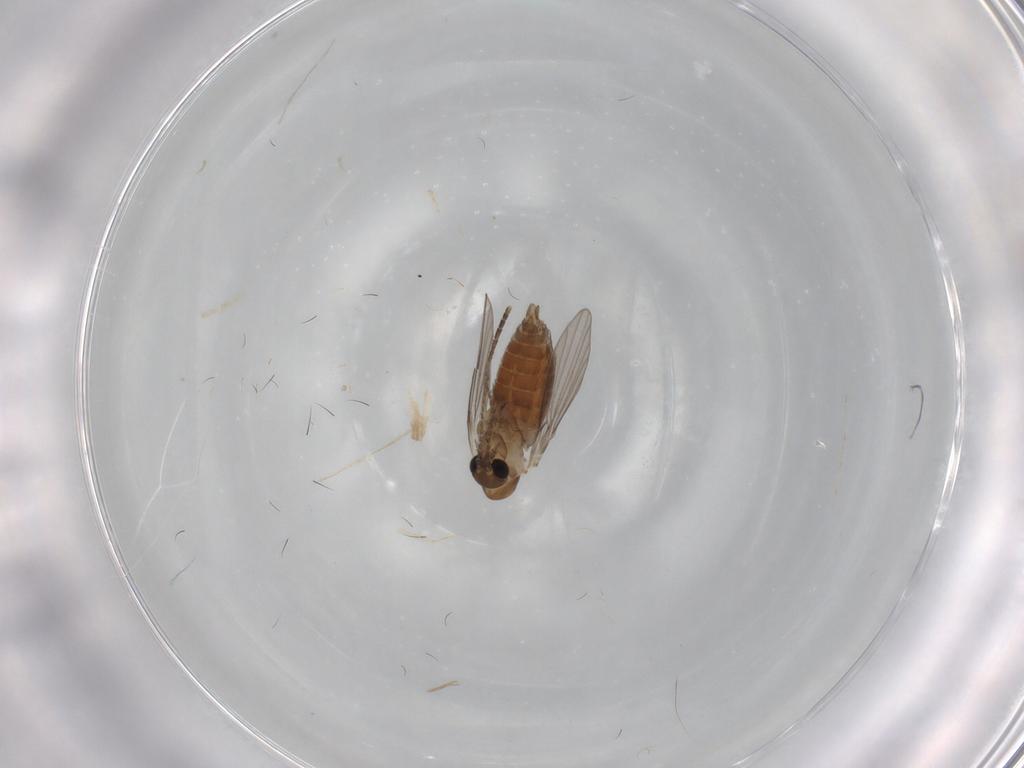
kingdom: Animalia
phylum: Arthropoda
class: Insecta
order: Diptera
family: Psychodidae
